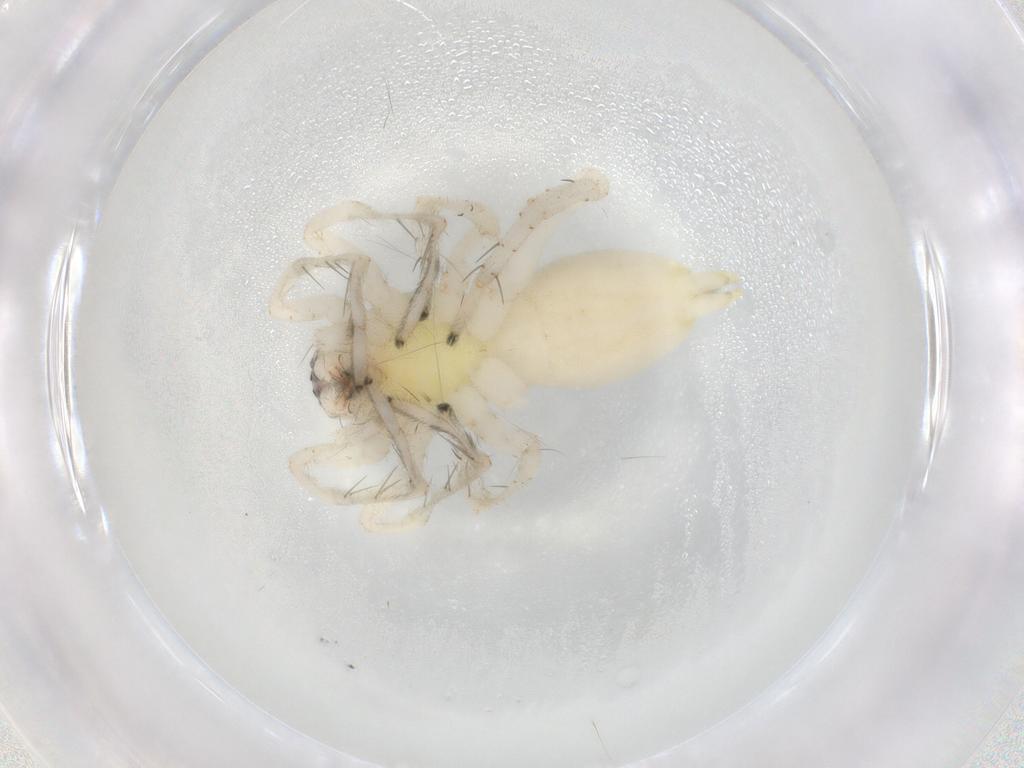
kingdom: Animalia
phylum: Arthropoda
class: Arachnida
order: Araneae
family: Clubionidae
